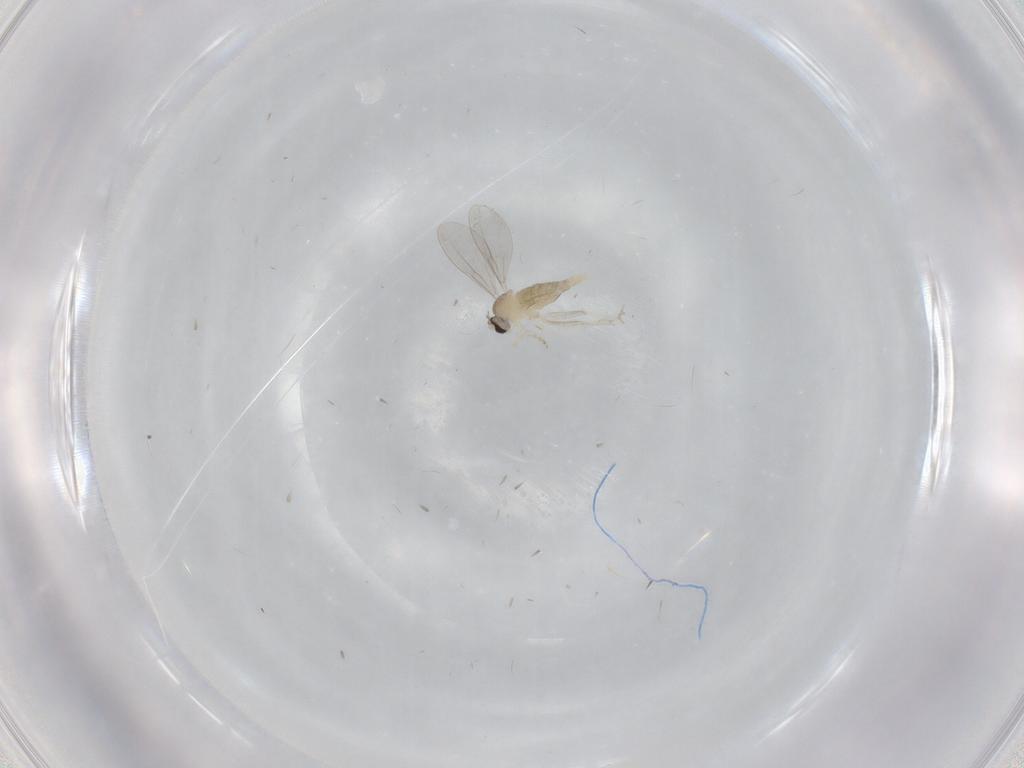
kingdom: Animalia
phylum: Arthropoda
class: Insecta
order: Diptera
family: Cecidomyiidae
